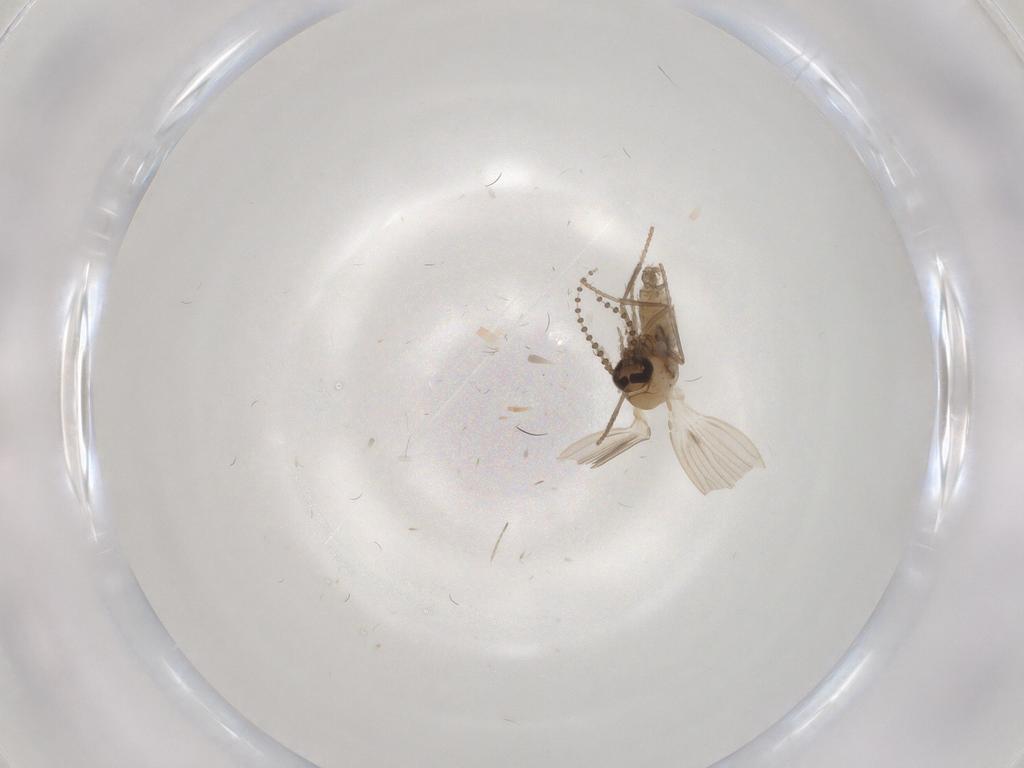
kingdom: Animalia
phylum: Arthropoda
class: Insecta
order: Diptera
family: Psychodidae
